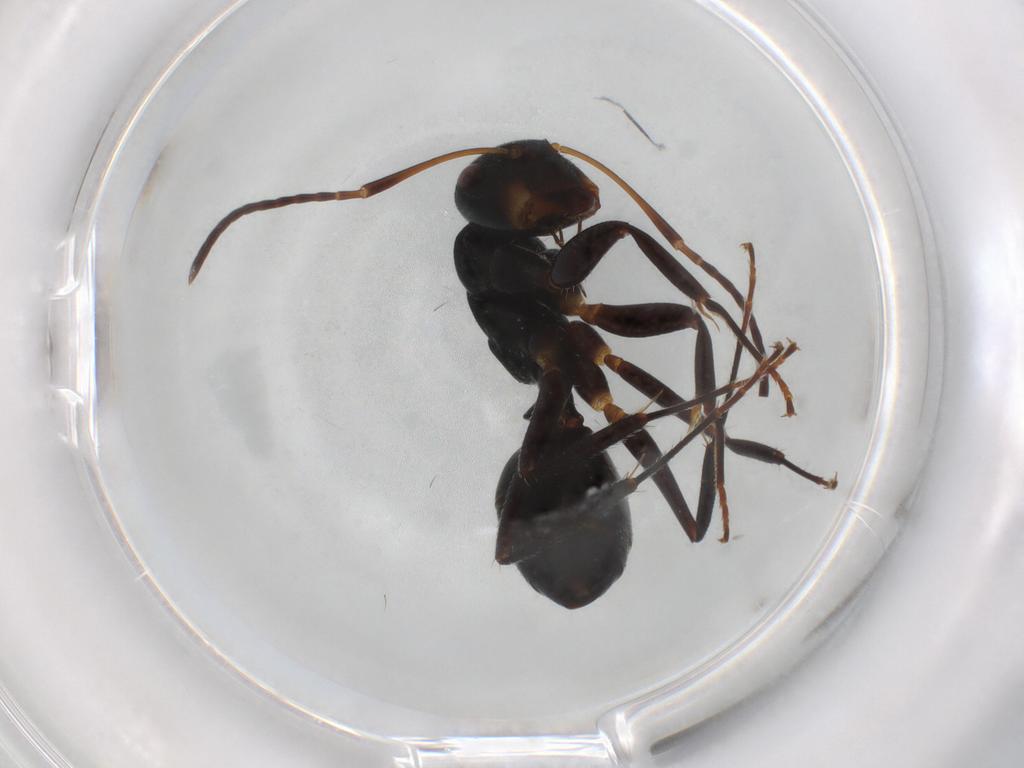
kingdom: Animalia
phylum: Arthropoda
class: Insecta
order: Hymenoptera
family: Formicidae
